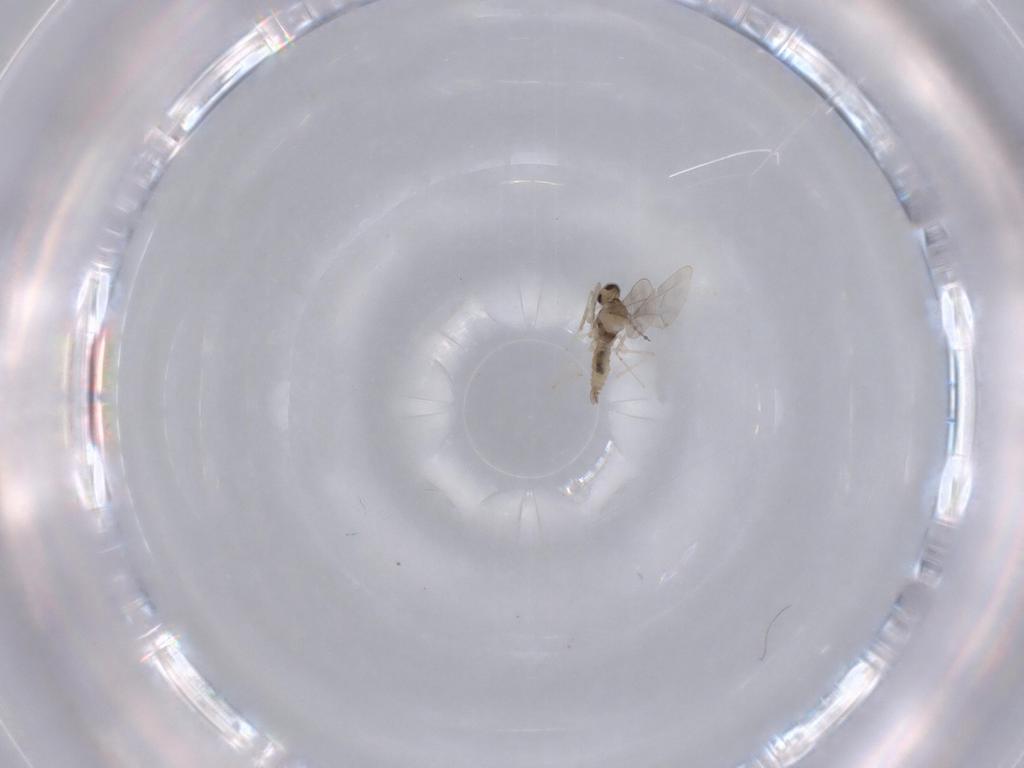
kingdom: Animalia
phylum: Arthropoda
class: Insecta
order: Diptera
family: Cecidomyiidae
